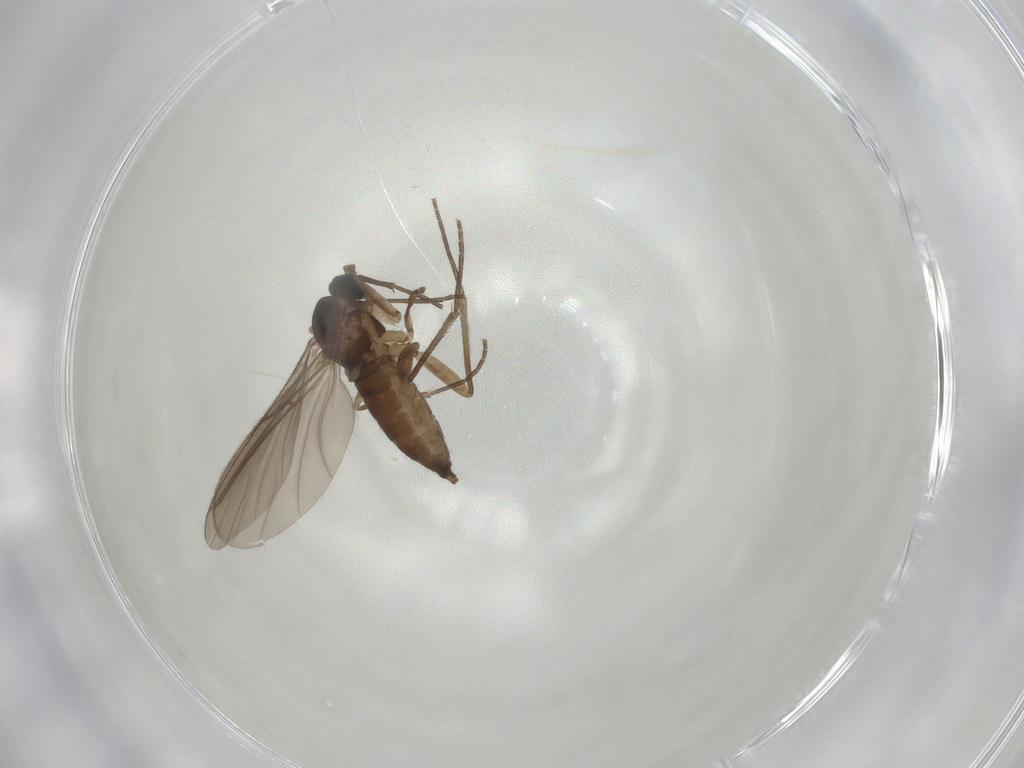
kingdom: Animalia
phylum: Arthropoda
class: Insecta
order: Diptera
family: Sciaridae
